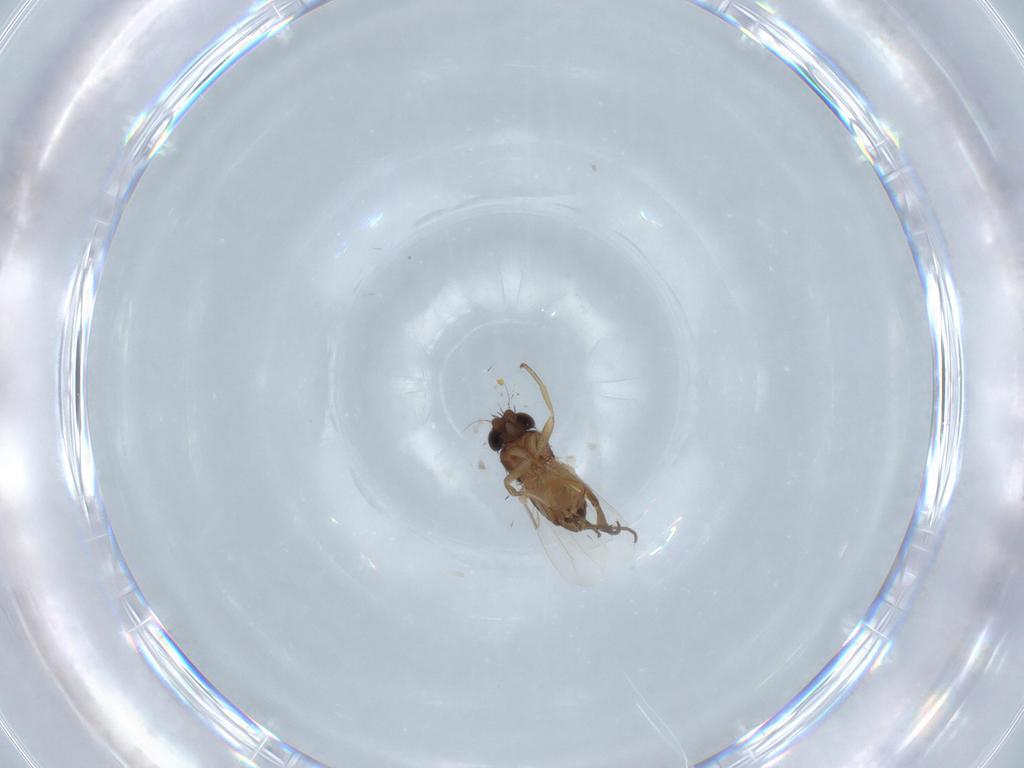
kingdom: Animalia
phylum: Arthropoda
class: Insecta
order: Diptera
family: Phoridae
